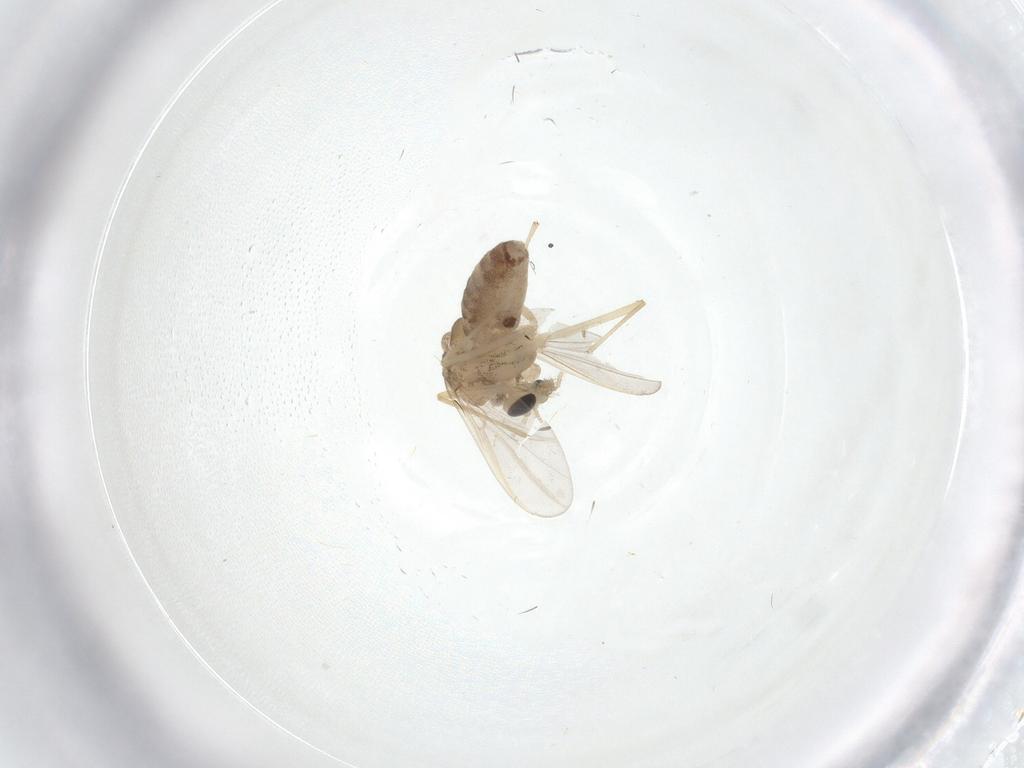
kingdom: Animalia
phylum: Arthropoda
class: Insecta
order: Diptera
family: Chironomidae
